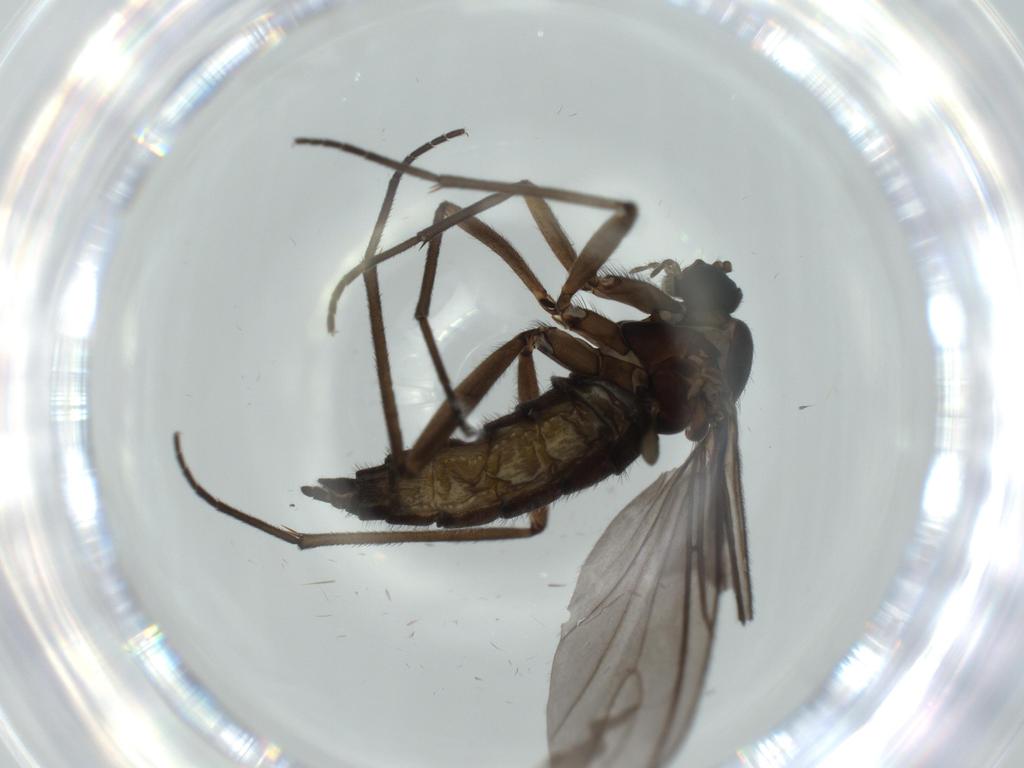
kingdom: Animalia
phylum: Arthropoda
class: Insecta
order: Diptera
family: Sciaridae
